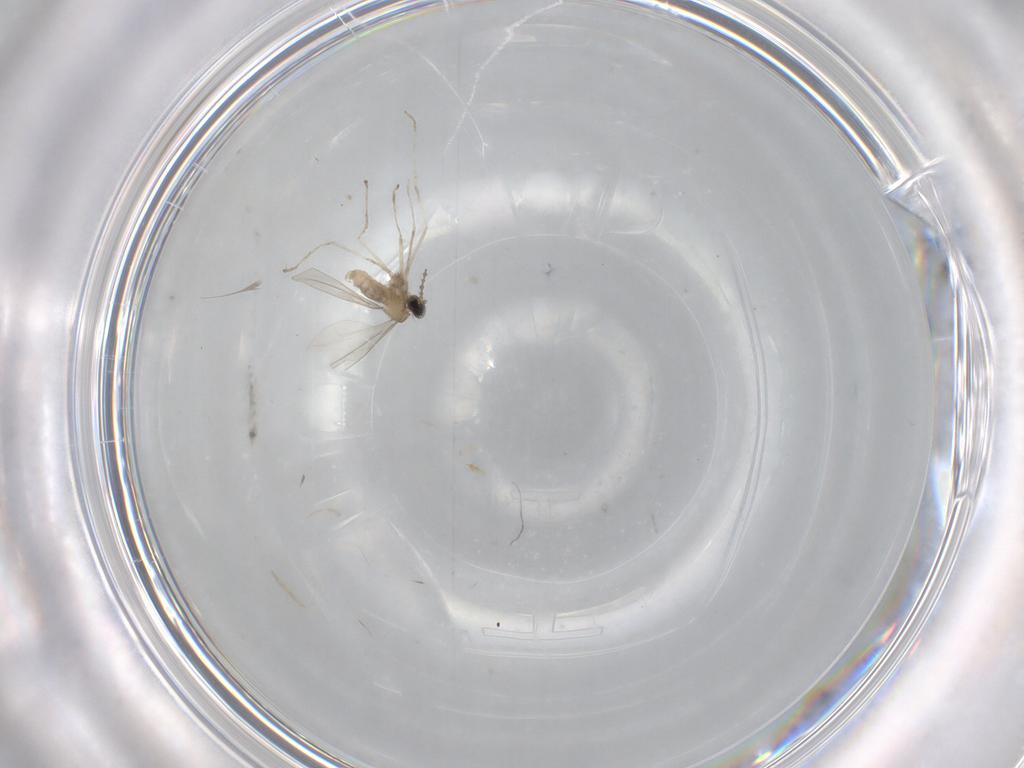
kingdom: Animalia
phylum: Arthropoda
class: Insecta
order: Diptera
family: Cecidomyiidae
